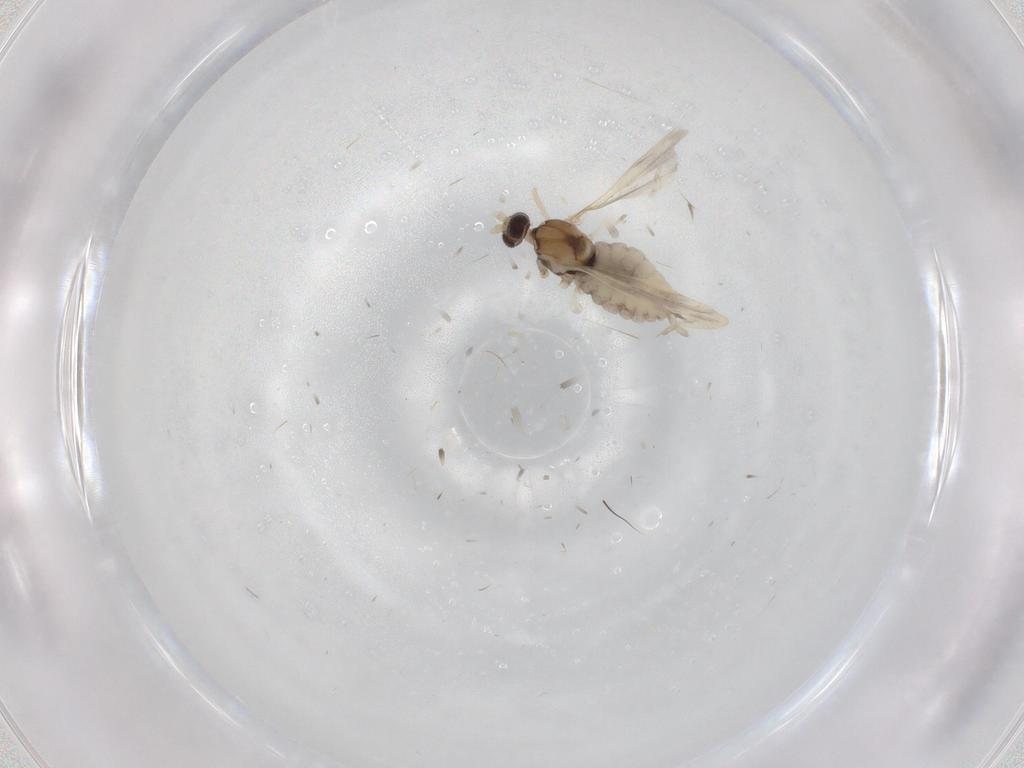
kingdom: Animalia
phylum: Arthropoda
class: Insecta
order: Diptera
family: Cecidomyiidae
